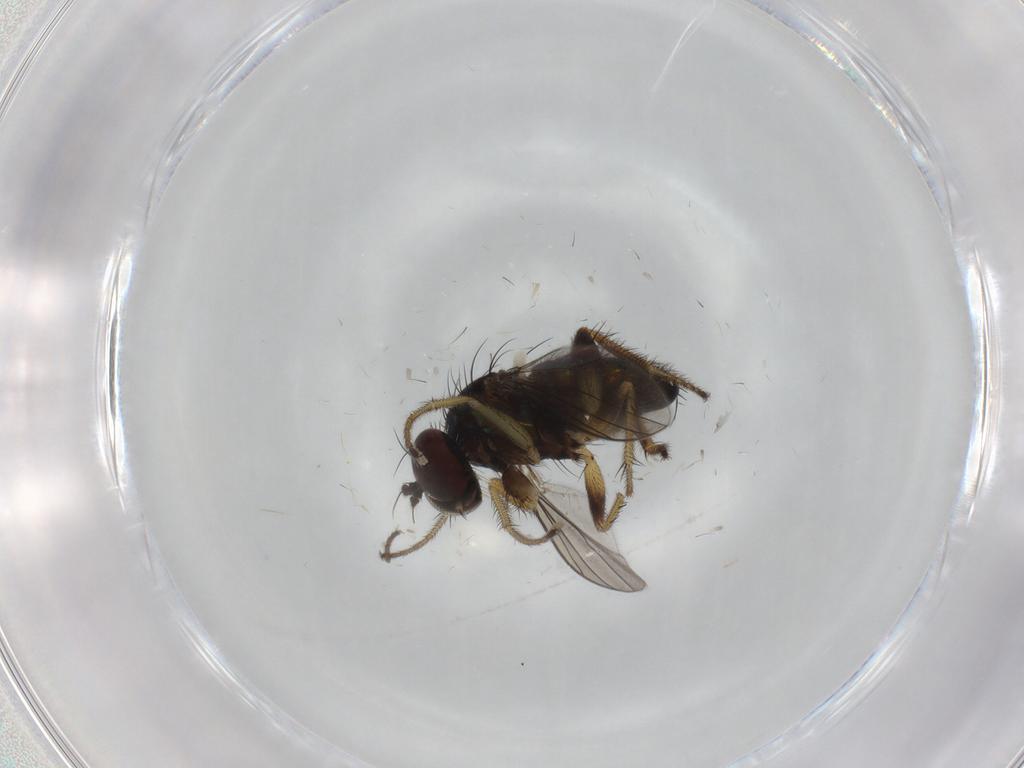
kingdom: Animalia
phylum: Arthropoda
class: Insecta
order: Diptera
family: Dolichopodidae
